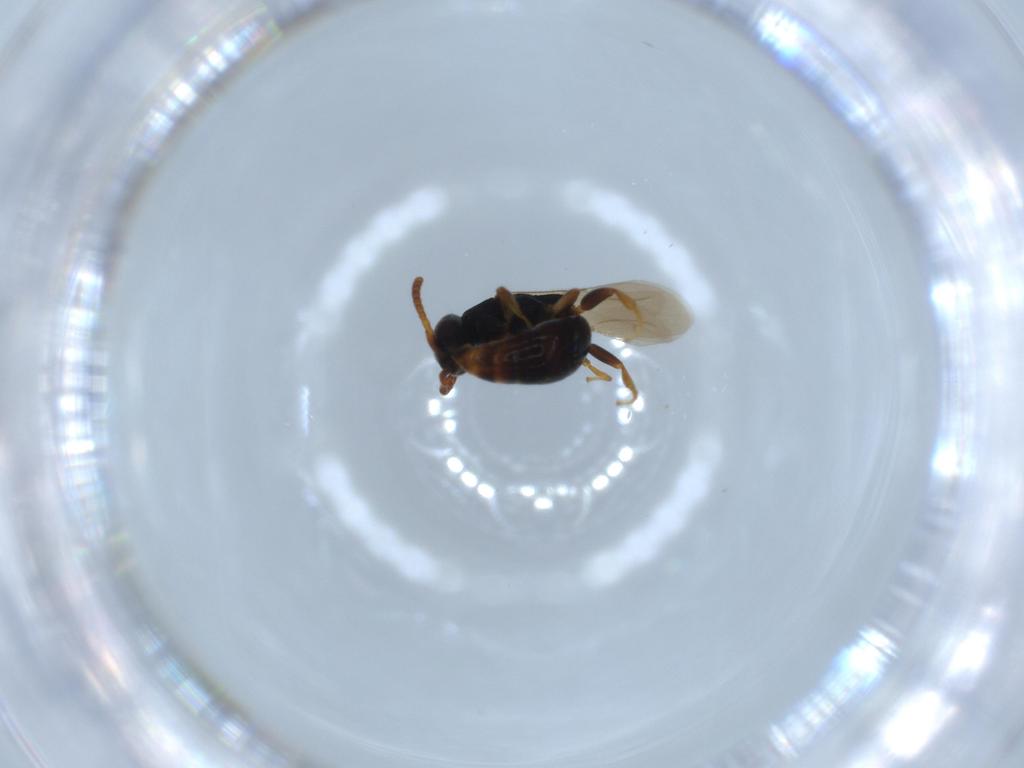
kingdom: Animalia
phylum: Arthropoda
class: Insecta
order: Hymenoptera
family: Bethylidae
